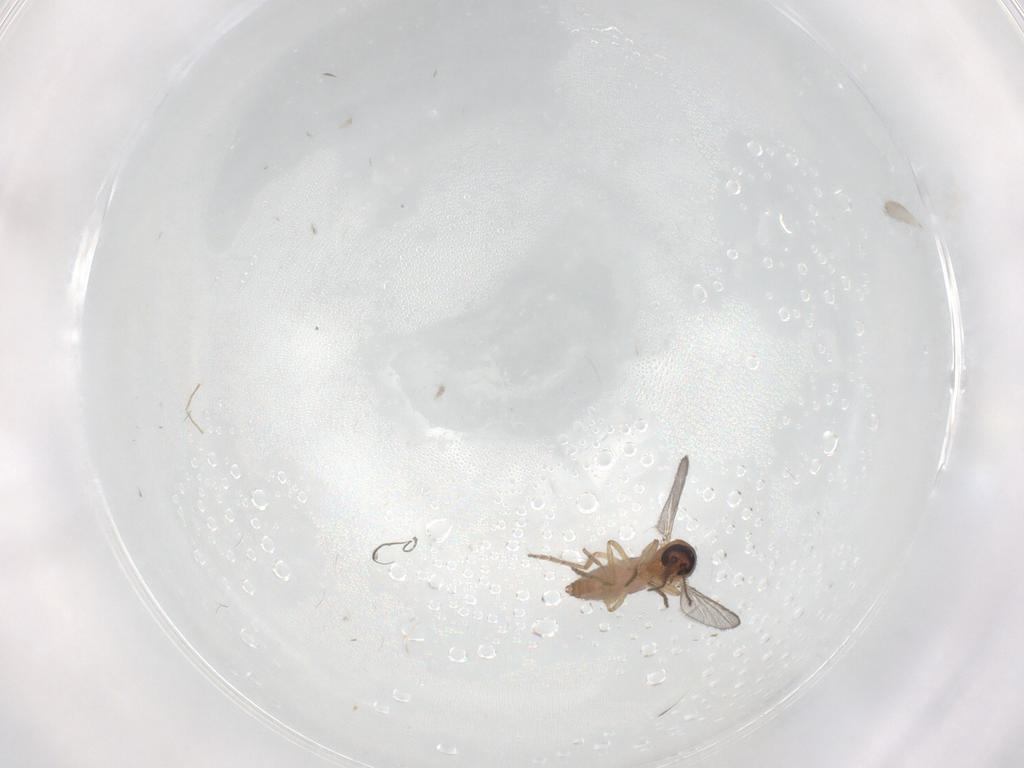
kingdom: Animalia
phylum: Arthropoda
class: Insecta
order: Diptera
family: Ceratopogonidae
